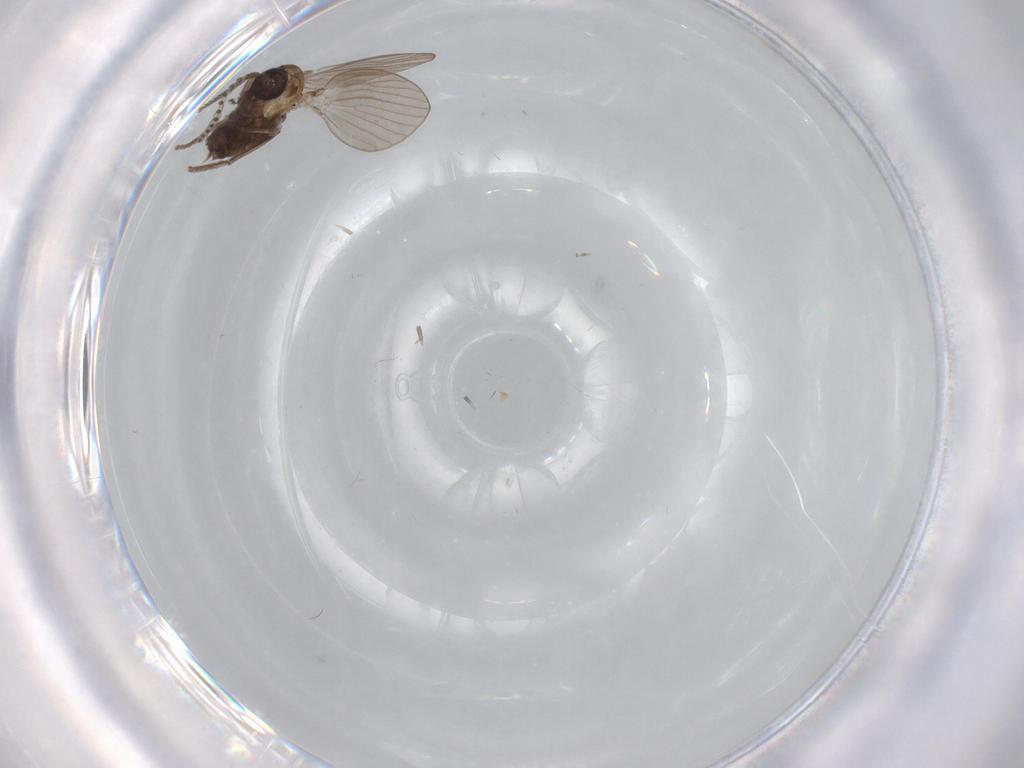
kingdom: Animalia
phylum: Arthropoda
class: Insecta
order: Diptera
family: Psychodidae
